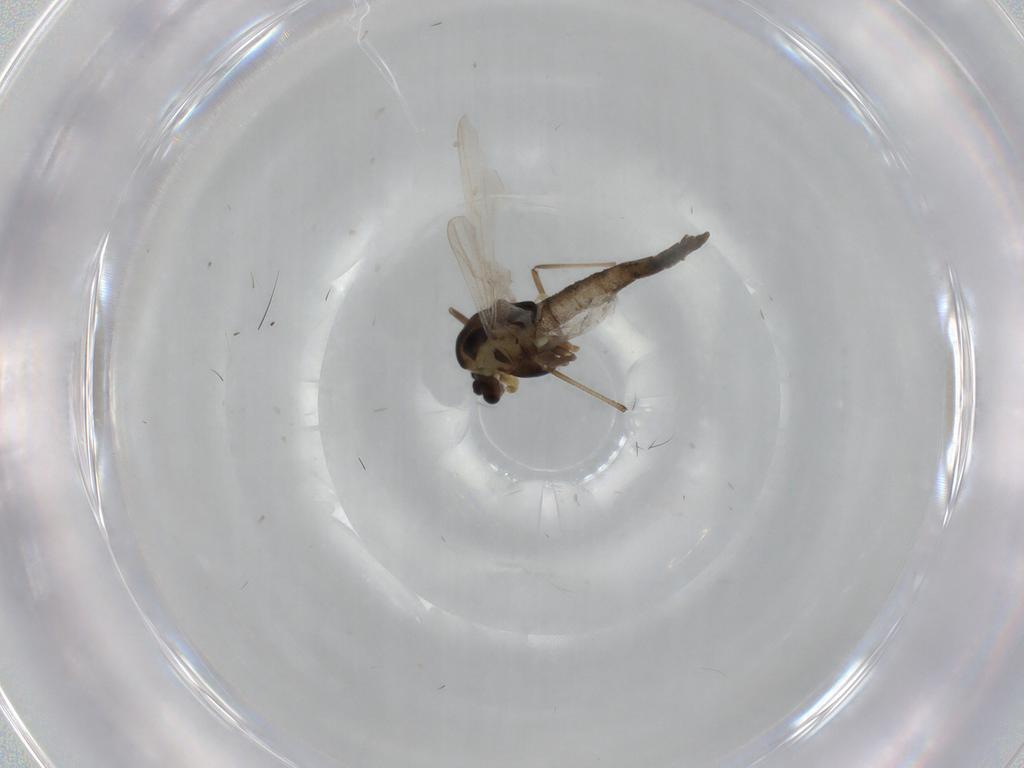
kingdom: Animalia
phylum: Arthropoda
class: Insecta
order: Diptera
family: Chironomidae
